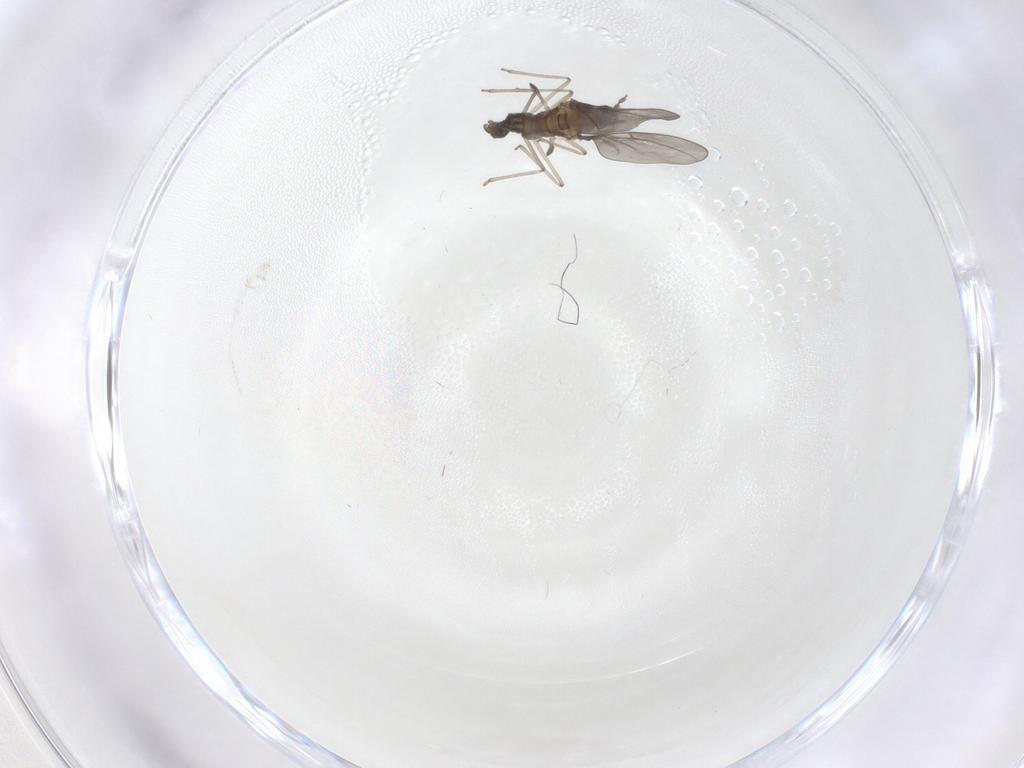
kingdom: Animalia
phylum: Arthropoda
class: Insecta
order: Diptera
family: Cecidomyiidae
